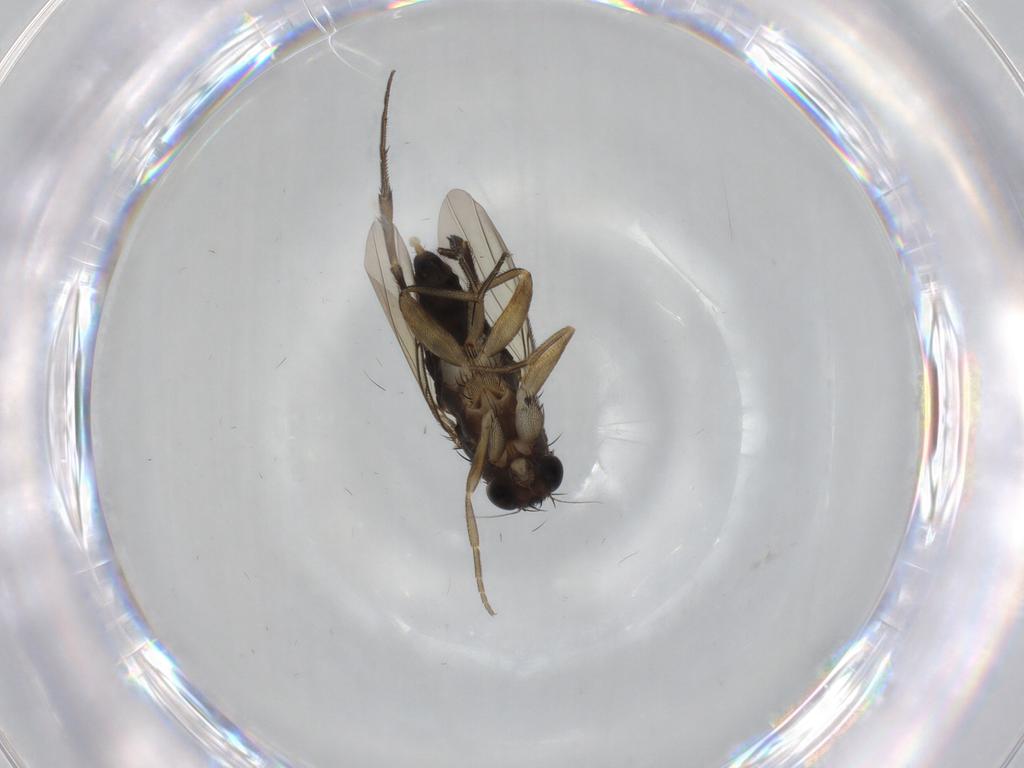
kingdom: Animalia
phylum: Arthropoda
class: Insecta
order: Diptera
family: Phoridae
